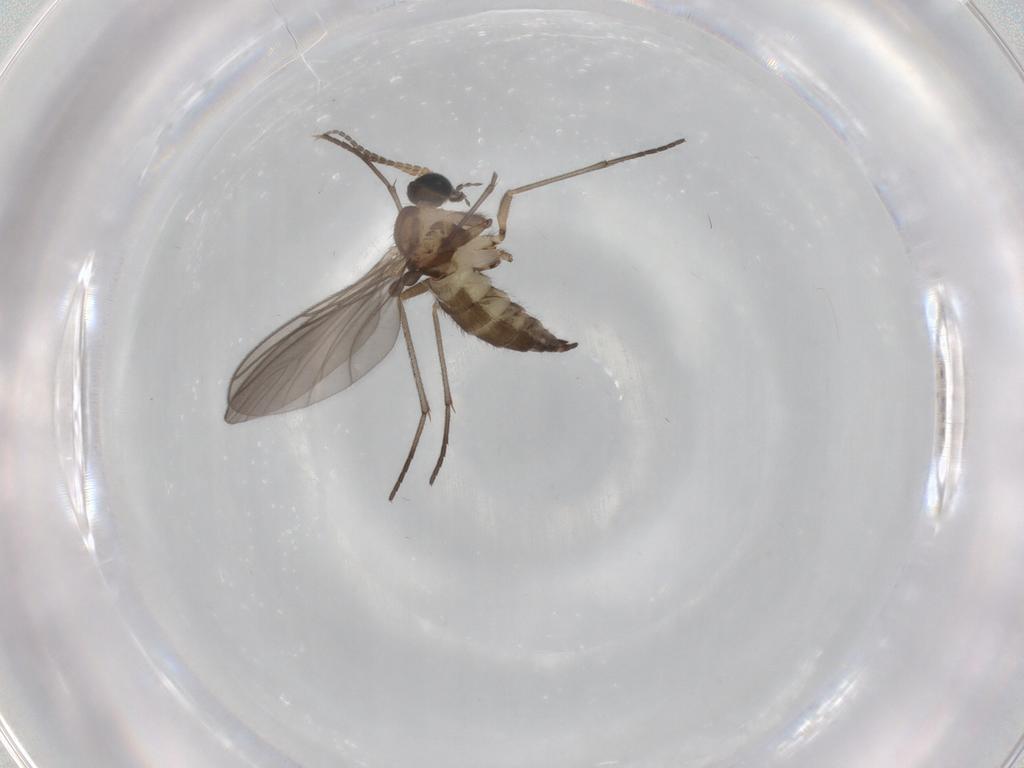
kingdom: Animalia
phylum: Arthropoda
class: Insecta
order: Diptera
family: Sciaridae
